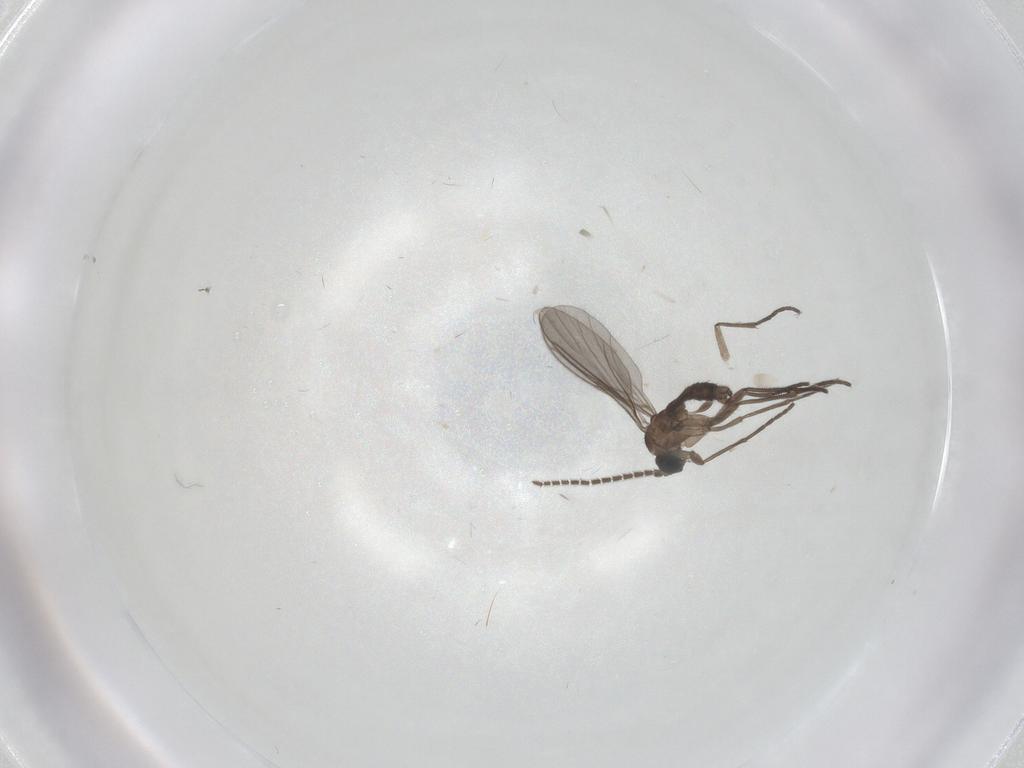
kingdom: Animalia
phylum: Arthropoda
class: Insecta
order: Diptera
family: Sciaridae
